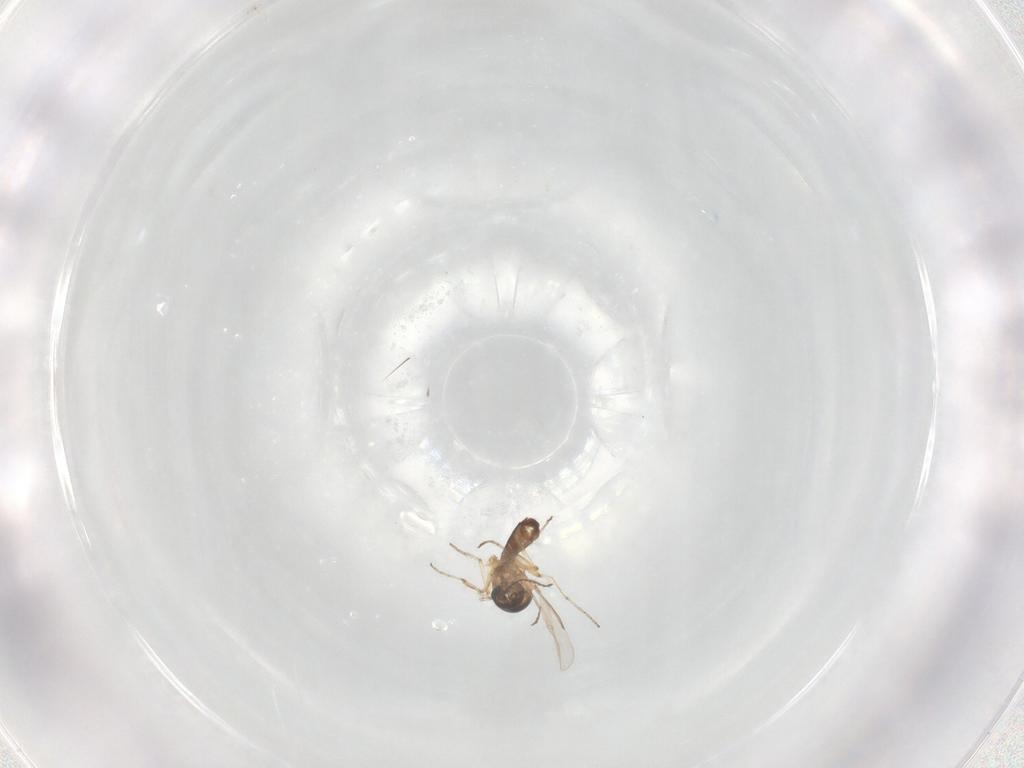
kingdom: Animalia
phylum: Arthropoda
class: Insecta
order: Diptera
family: Ceratopogonidae
